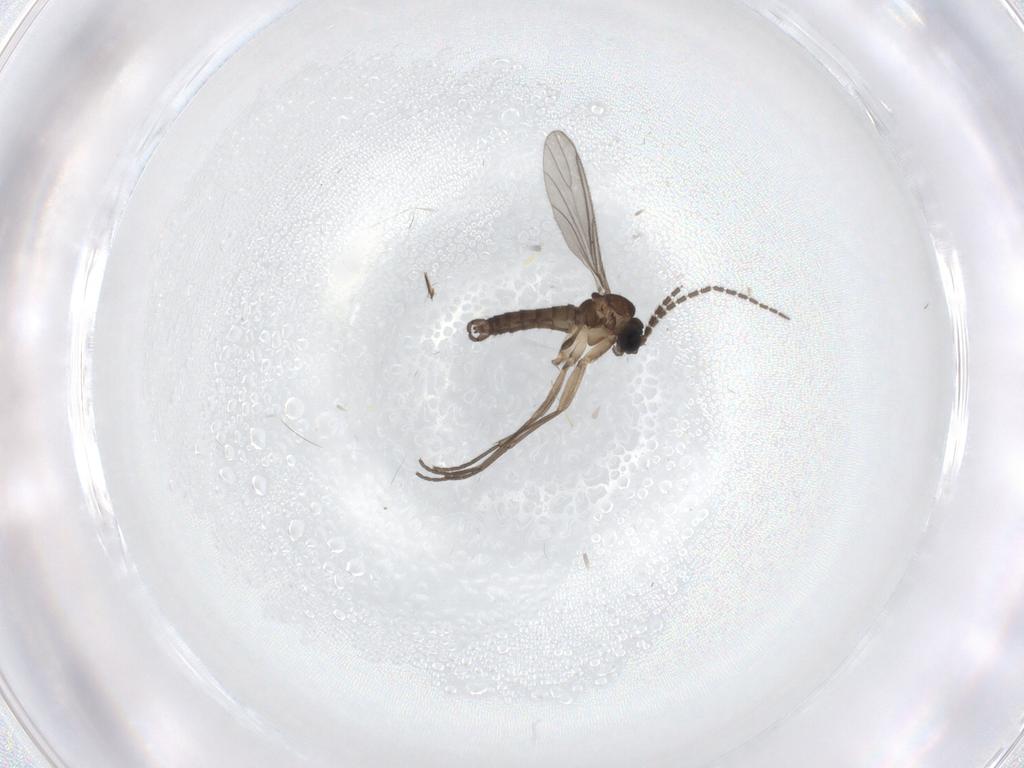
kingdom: Animalia
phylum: Arthropoda
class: Insecta
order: Diptera
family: Sciaridae
